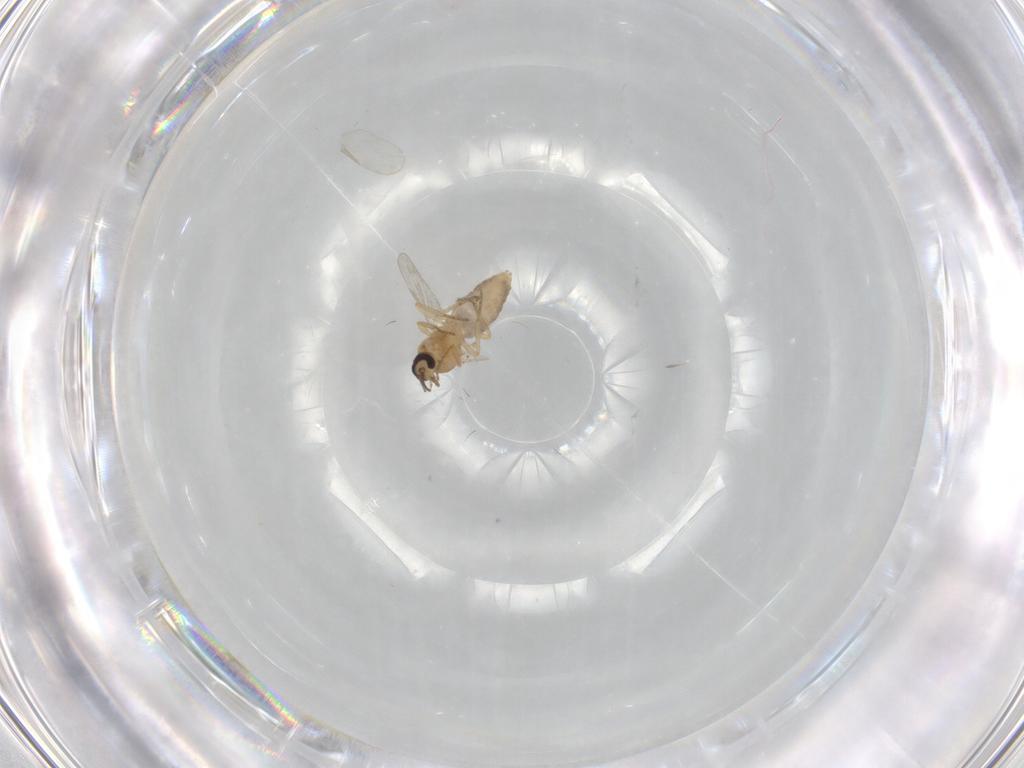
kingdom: Animalia
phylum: Arthropoda
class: Insecta
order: Diptera
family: Ceratopogonidae
